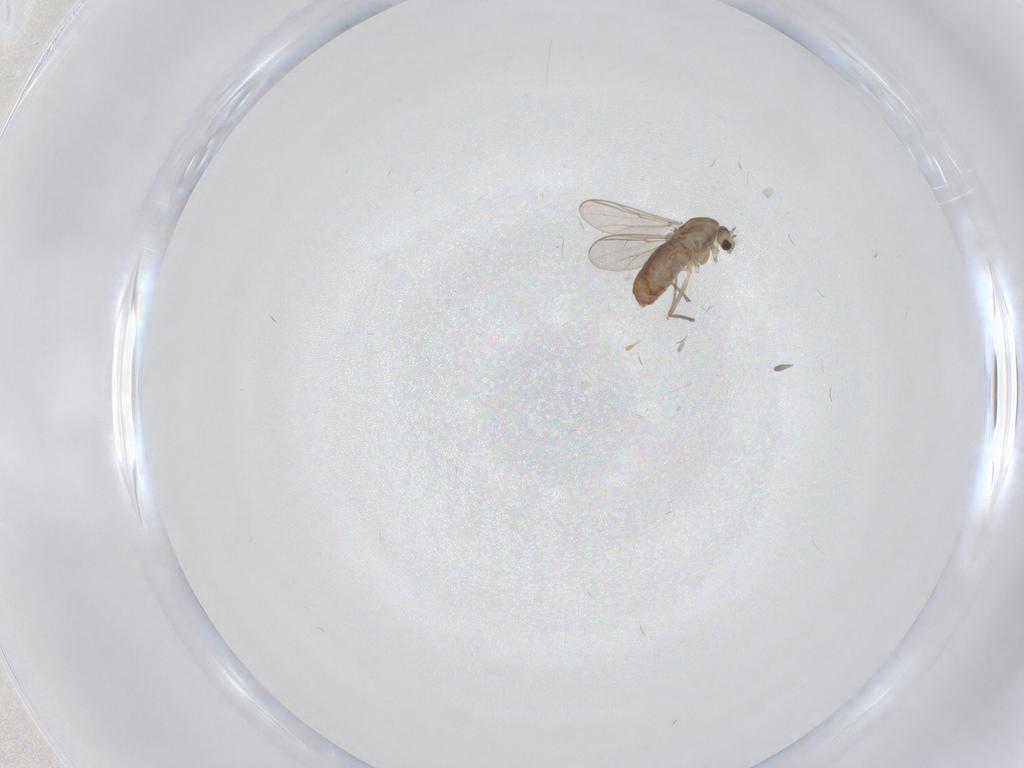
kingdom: Animalia
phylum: Arthropoda
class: Insecta
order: Diptera
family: Chironomidae
